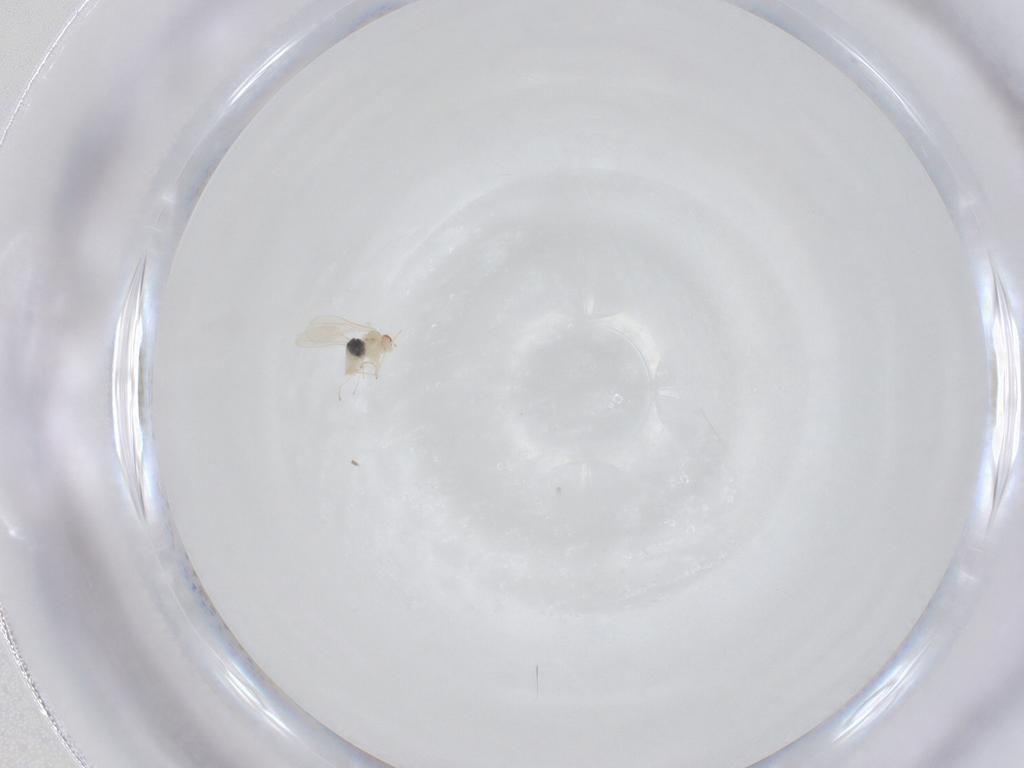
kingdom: Animalia
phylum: Arthropoda
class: Insecta
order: Diptera
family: Cecidomyiidae
